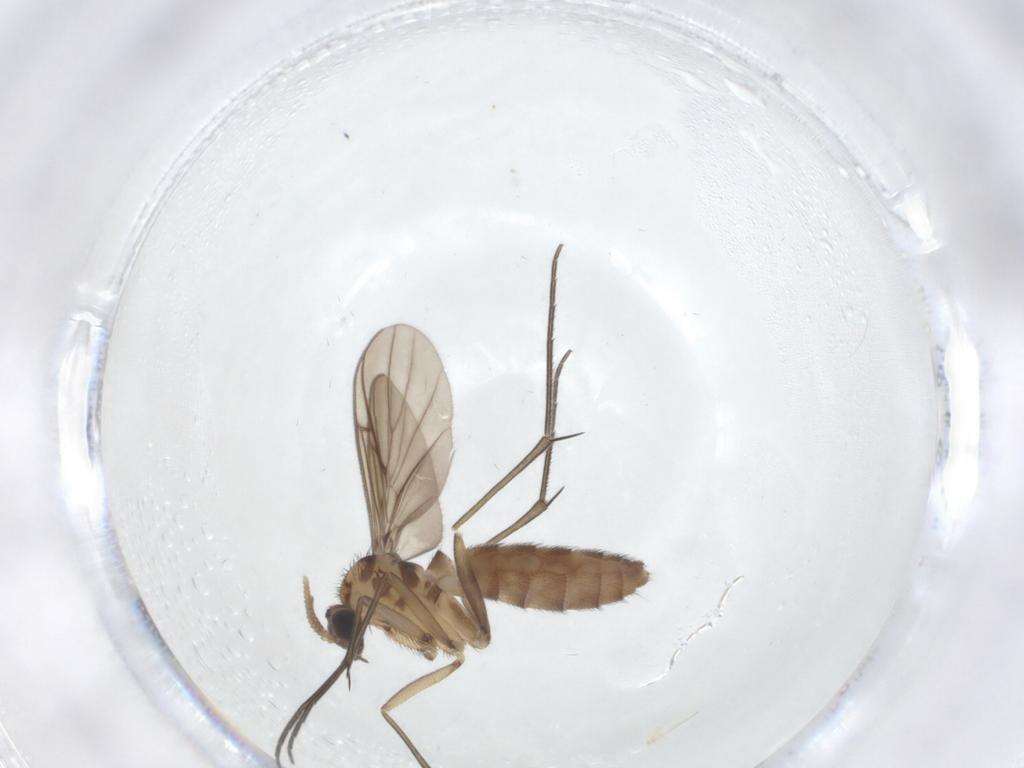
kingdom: Animalia
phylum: Arthropoda
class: Insecta
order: Diptera
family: Keroplatidae
